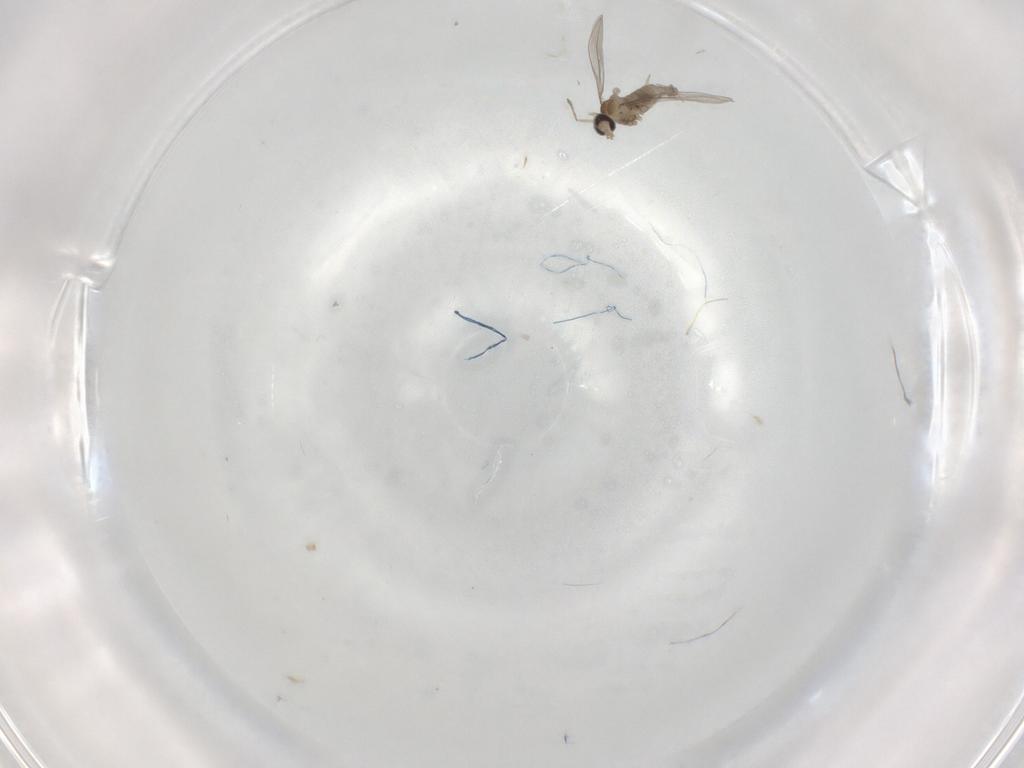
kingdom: Animalia
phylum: Arthropoda
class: Insecta
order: Diptera
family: Cecidomyiidae
